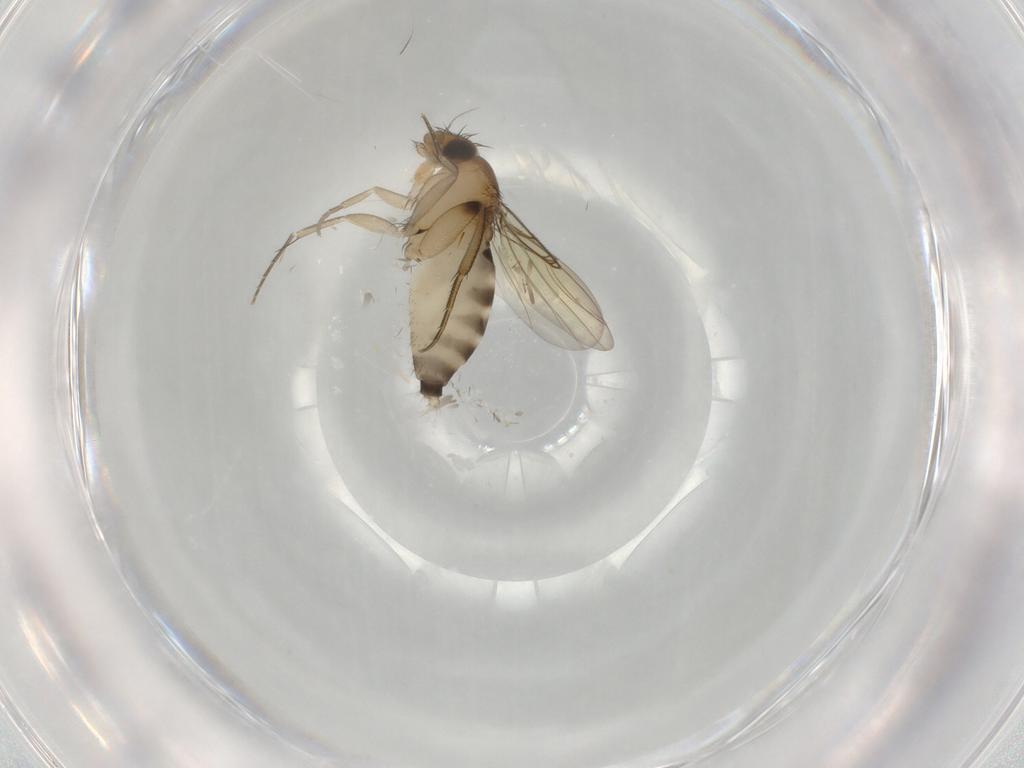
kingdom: Animalia
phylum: Arthropoda
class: Insecta
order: Diptera
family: Phoridae
